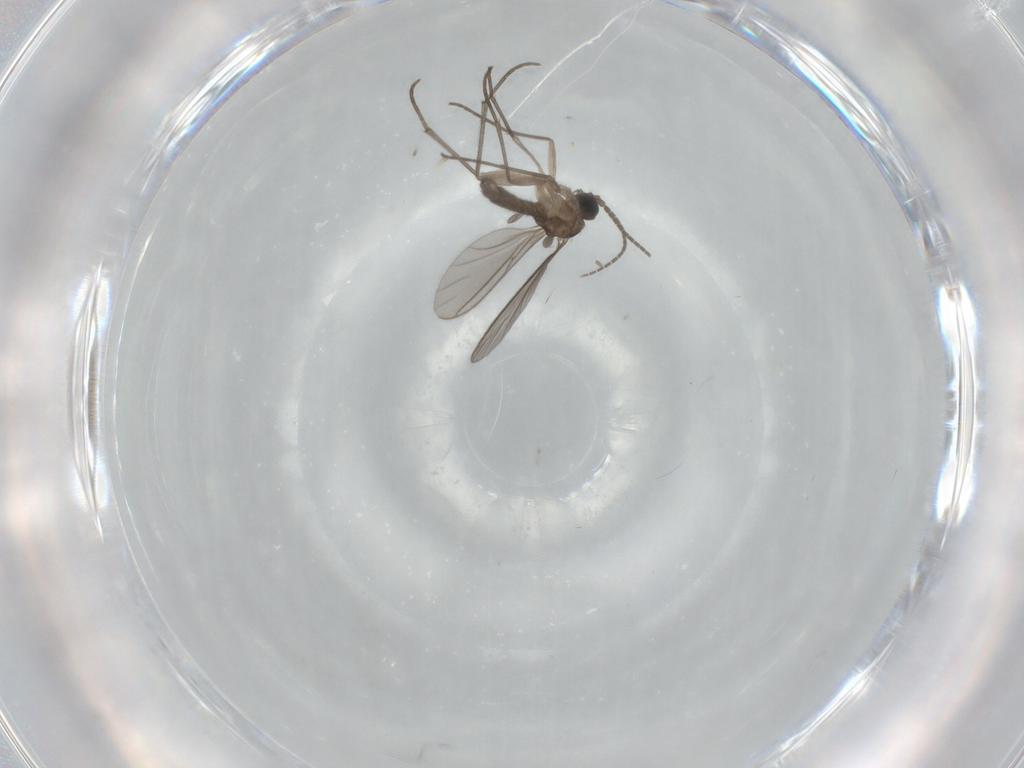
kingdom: Animalia
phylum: Arthropoda
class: Insecta
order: Diptera
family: Sciaridae
